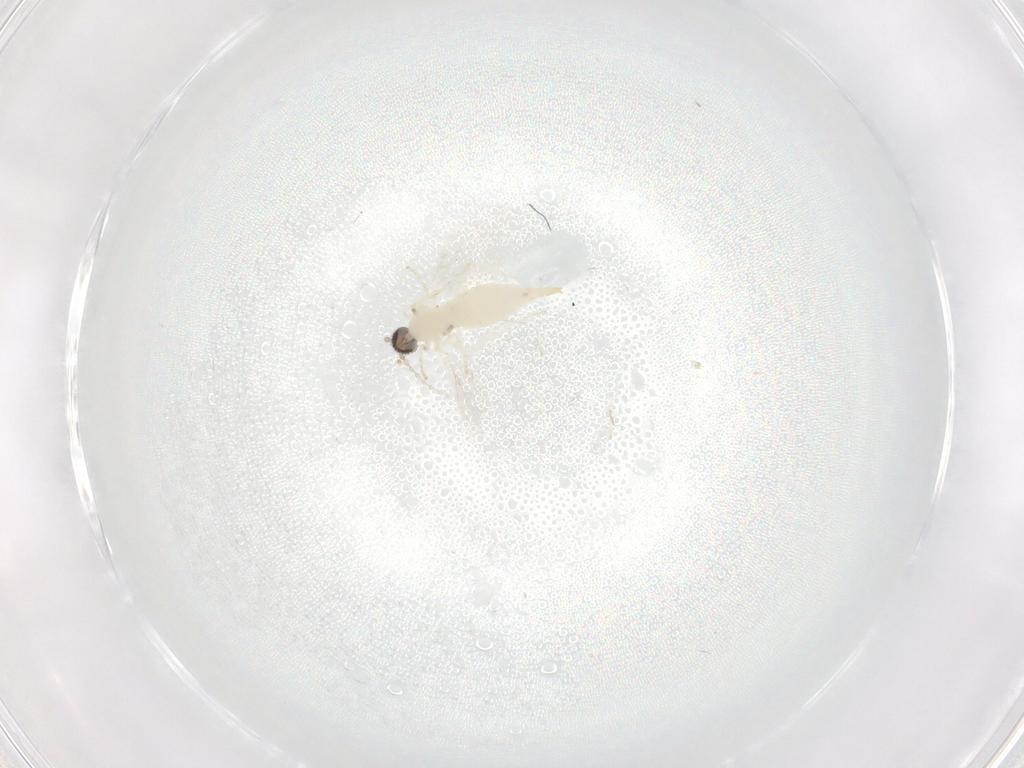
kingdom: Animalia
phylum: Arthropoda
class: Insecta
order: Diptera
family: Cecidomyiidae
